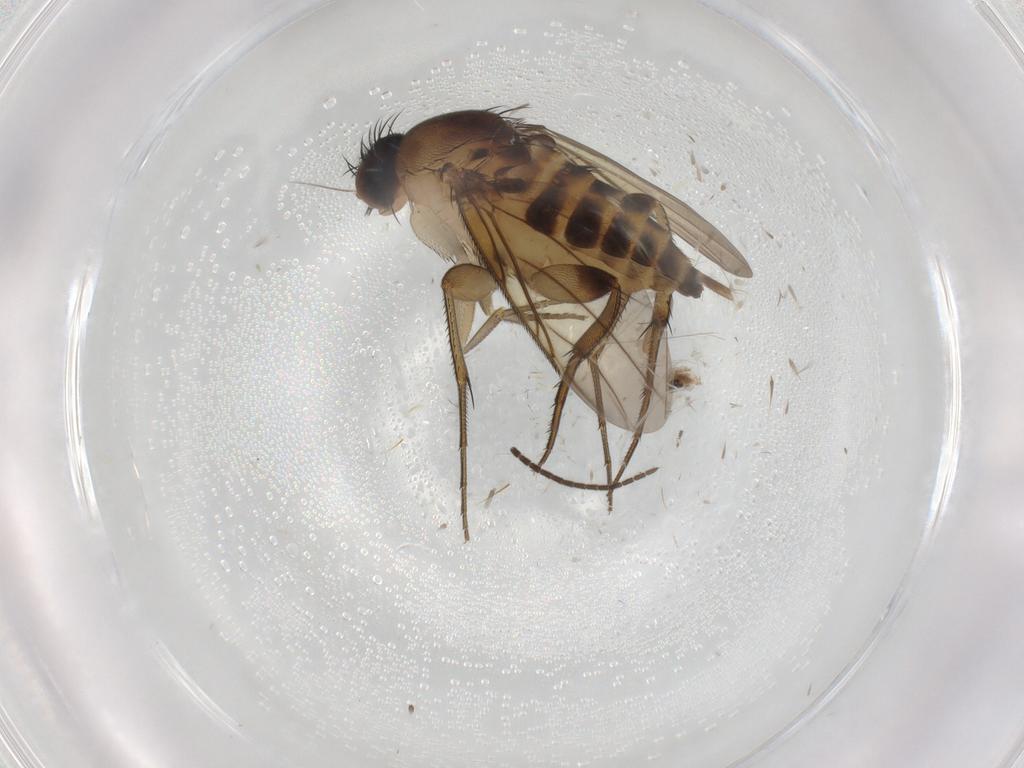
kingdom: Animalia
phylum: Arthropoda
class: Insecta
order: Diptera
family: Sciaridae
